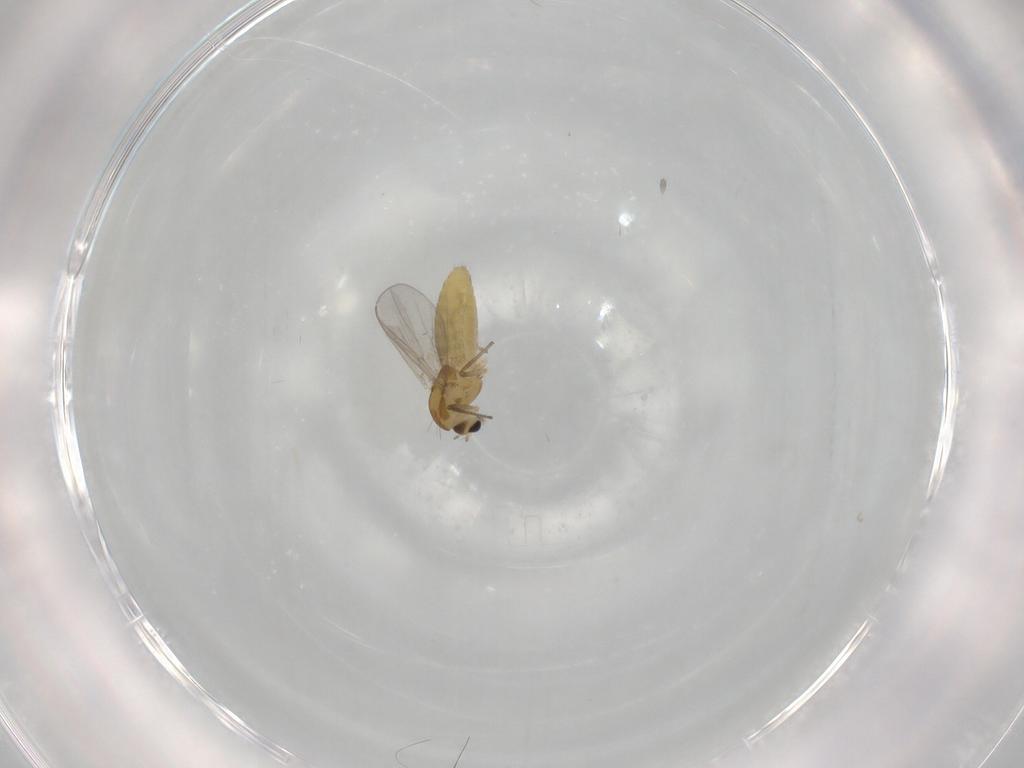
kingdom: Animalia
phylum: Arthropoda
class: Insecta
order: Diptera
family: Chironomidae
